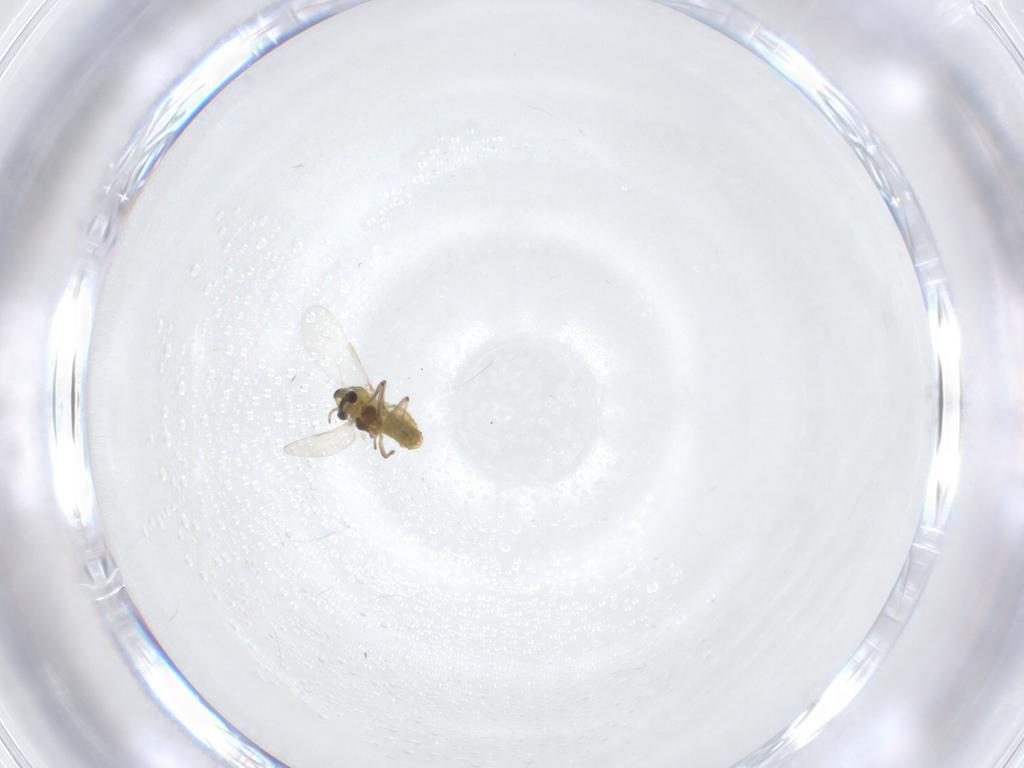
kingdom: Animalia
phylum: Arthropoda
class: Insecta
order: Diptera
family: Chironomidae
